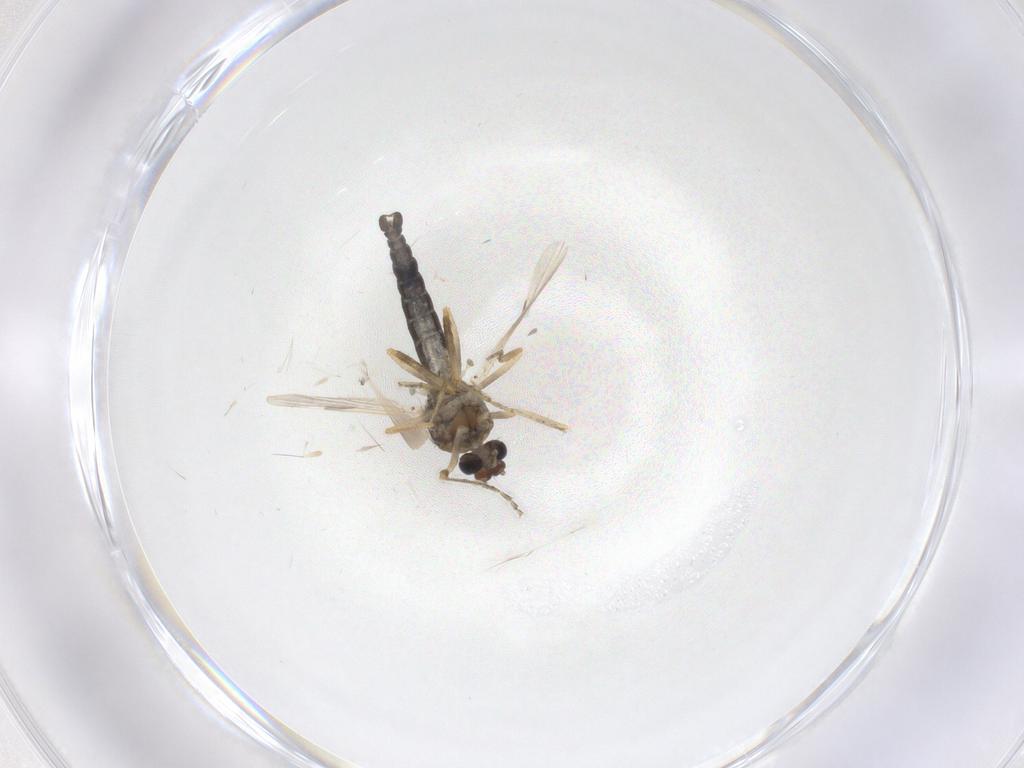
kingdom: Animalia
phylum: Arthropoda
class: Insecta
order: Diptera
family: Ceratopogonidae
